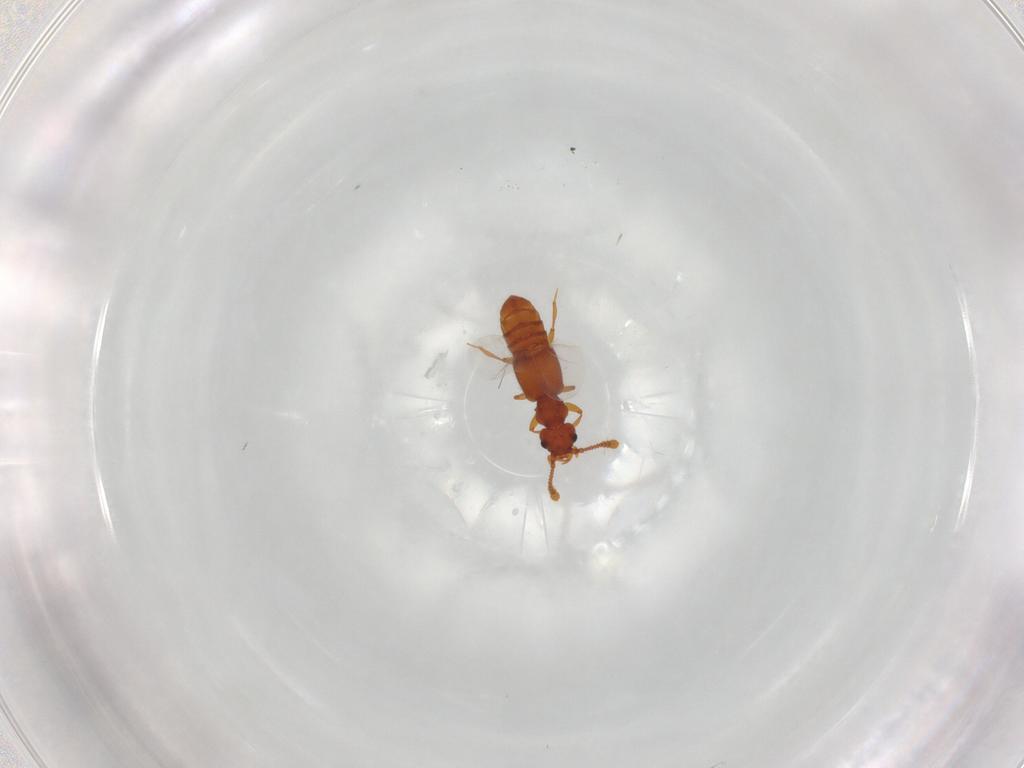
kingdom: Animalia
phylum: Arthropoda
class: Insecta
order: Coleoptera
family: Staphylinidae
